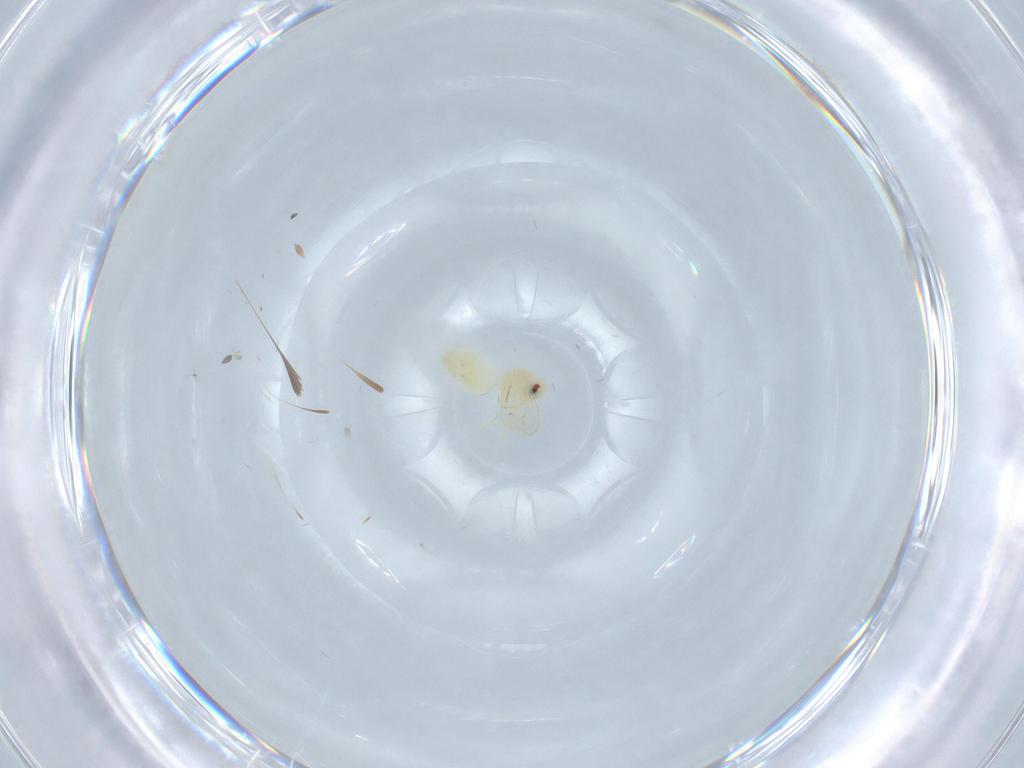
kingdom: Animalia
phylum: Arthropoda
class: Insecta
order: Hemiptera
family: Aleyrodidae
